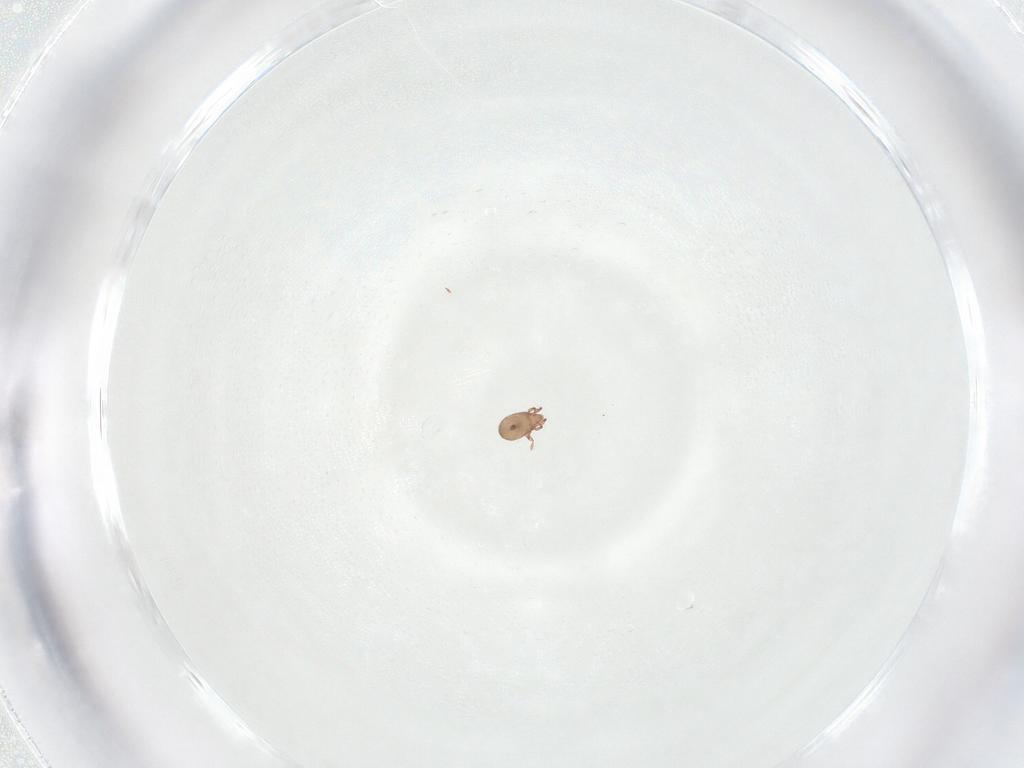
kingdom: Animalia
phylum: Arthropoda
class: Arachnida
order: Sarcoptiformes
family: Eremaeidae
